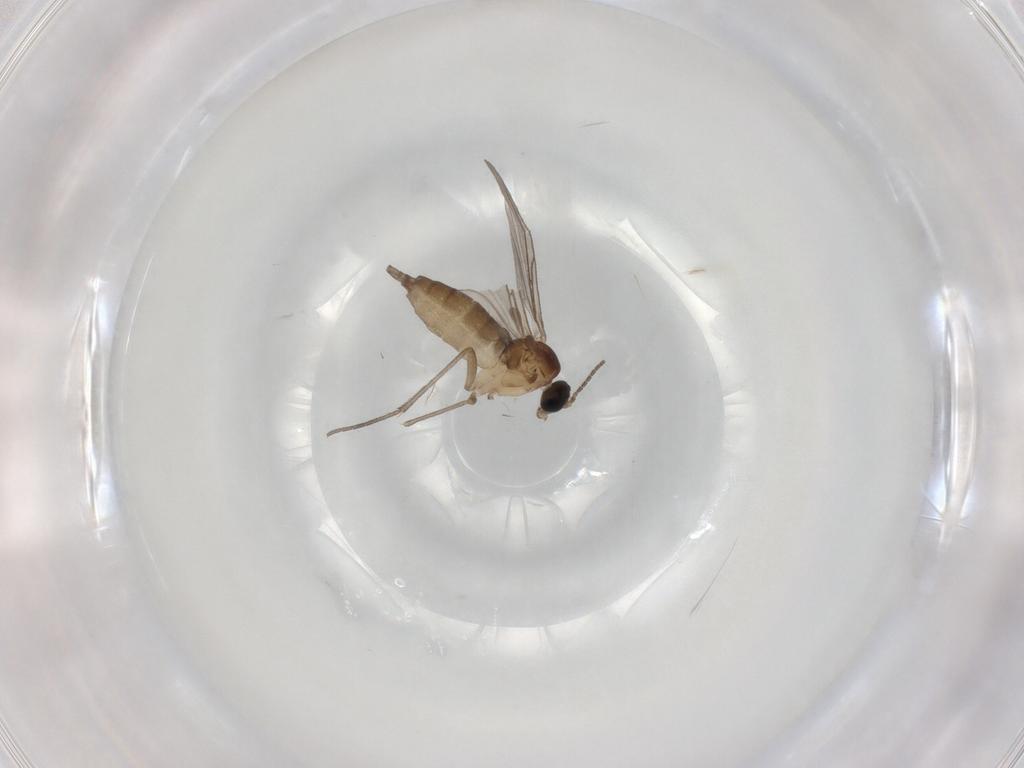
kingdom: Animalia
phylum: Arthropoda
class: Insecta
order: Diptera
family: Sciaridae
